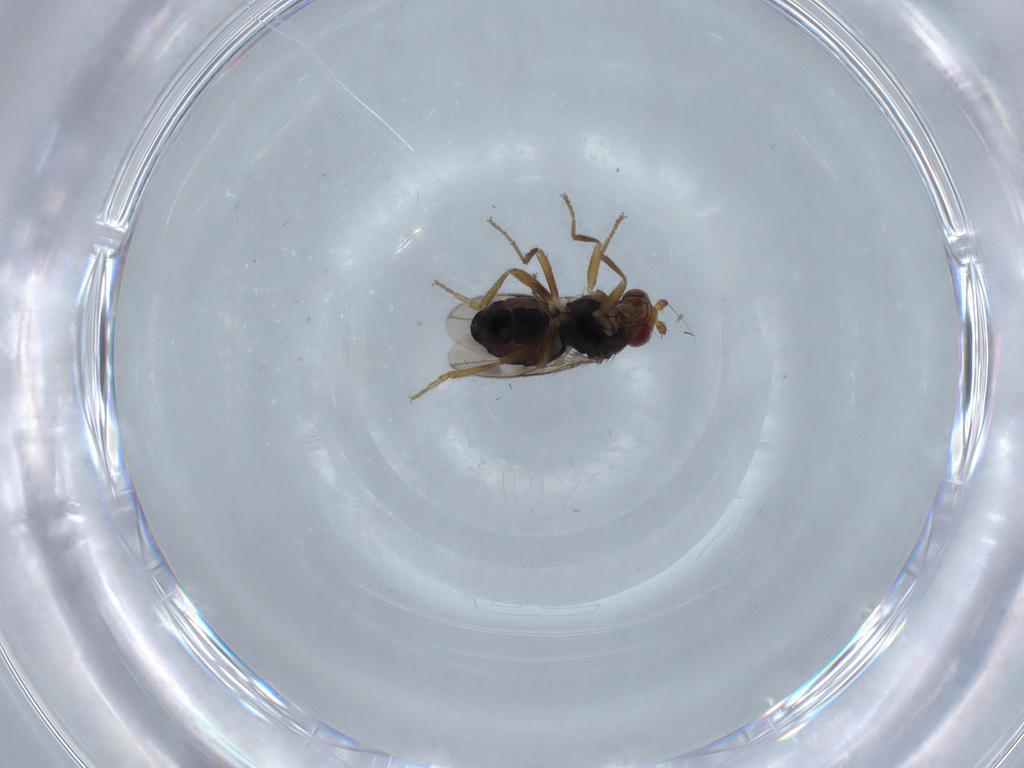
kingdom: Animalia
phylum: Arthropoda
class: Insecta
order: Diptera
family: Sphaeroceridae
